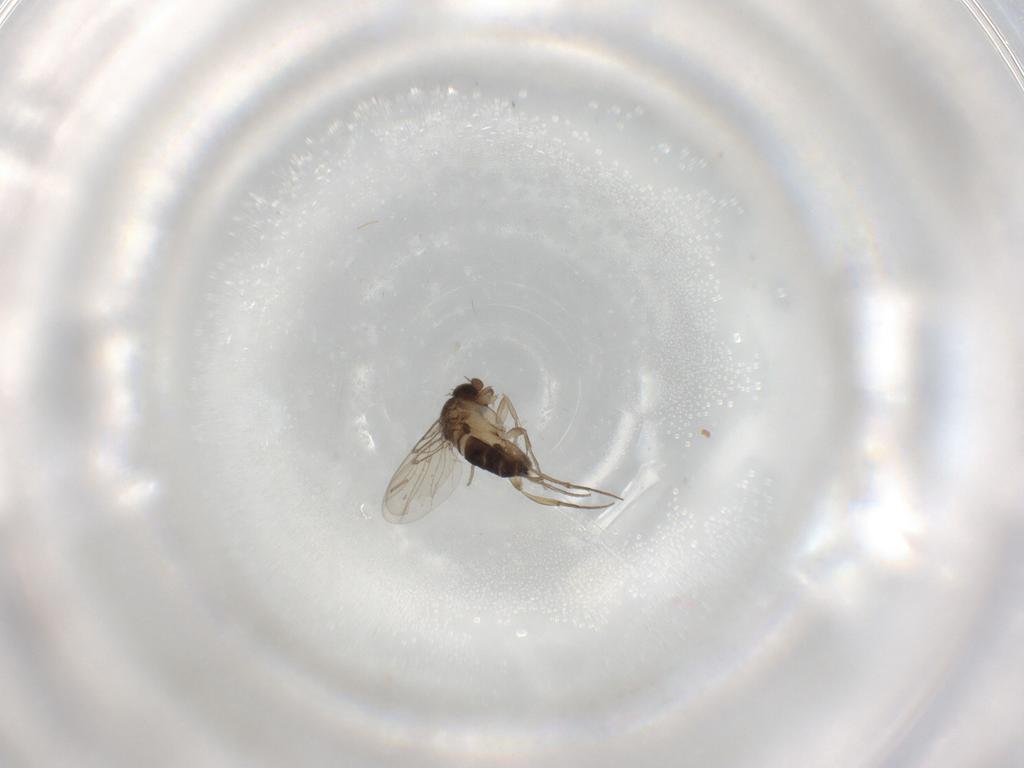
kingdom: Animalia
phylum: Arthropoda
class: Insecta
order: Diptera
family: Cecidomyiidae
